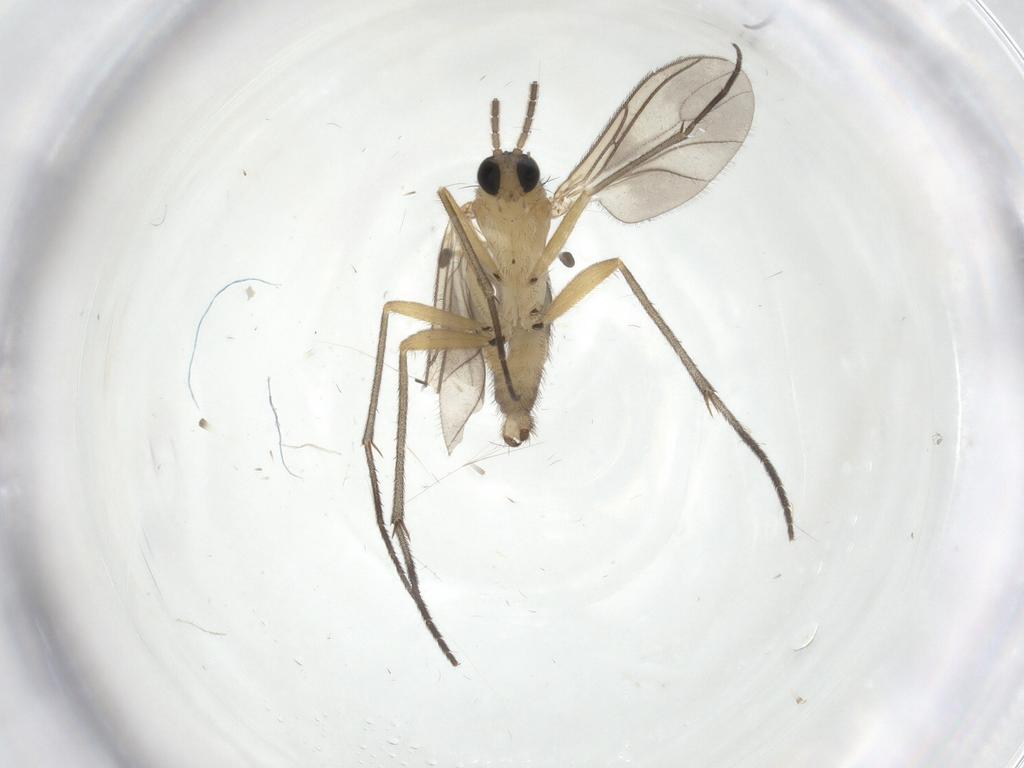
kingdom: Animalia
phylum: Arthropoda
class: Insecta
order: Diptera
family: Sciaridae
